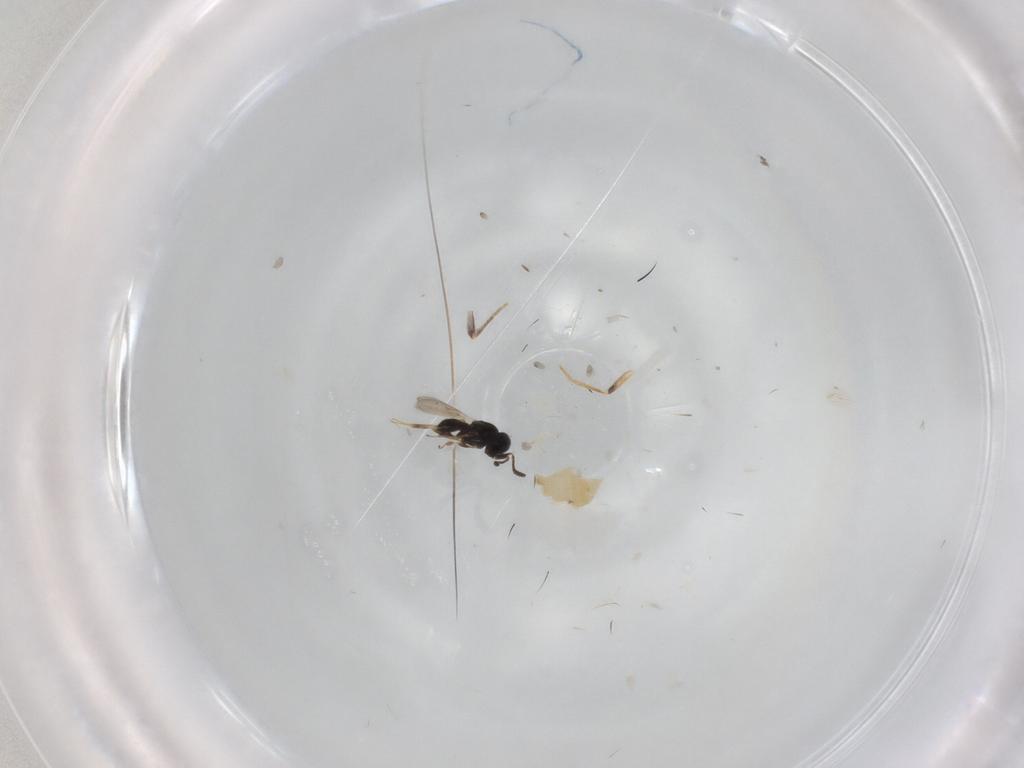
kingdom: Animalia
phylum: Arthropoda
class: Insecta
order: Hymenoptera
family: Scelionidae
